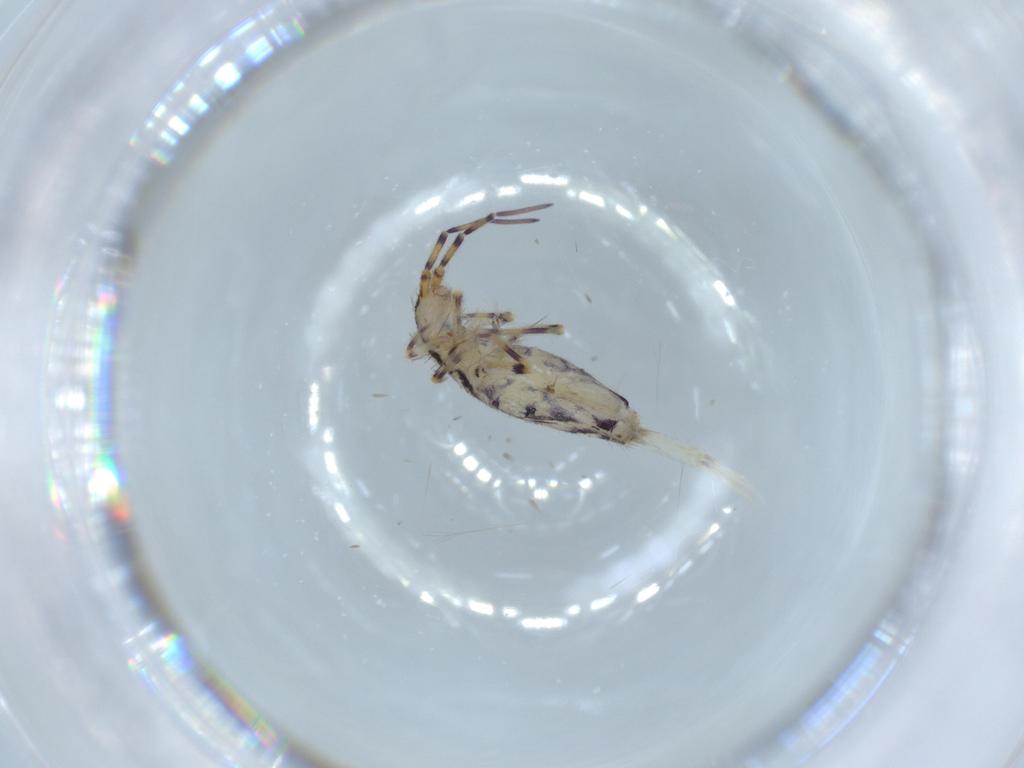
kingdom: Animalia
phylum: Arthropoda
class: Collembola
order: Entomobryomorpha
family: Entomobryidae
